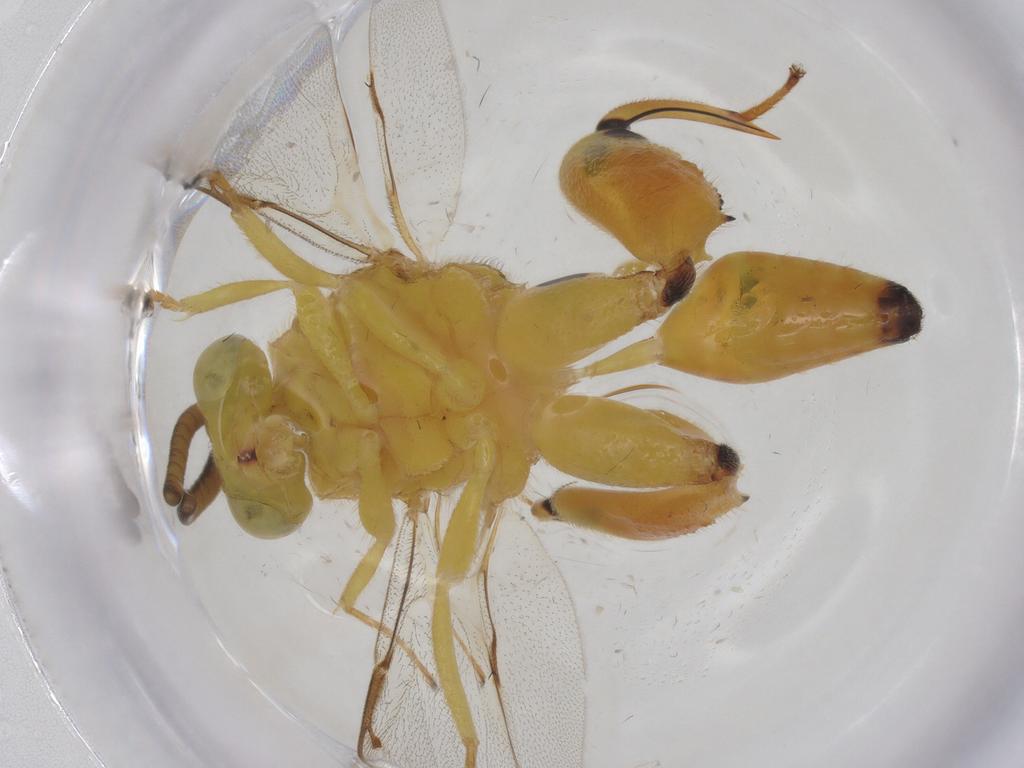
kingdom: Animalia
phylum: Arthropoda
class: Insecta
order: Hymenoptera
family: Chalcididae
